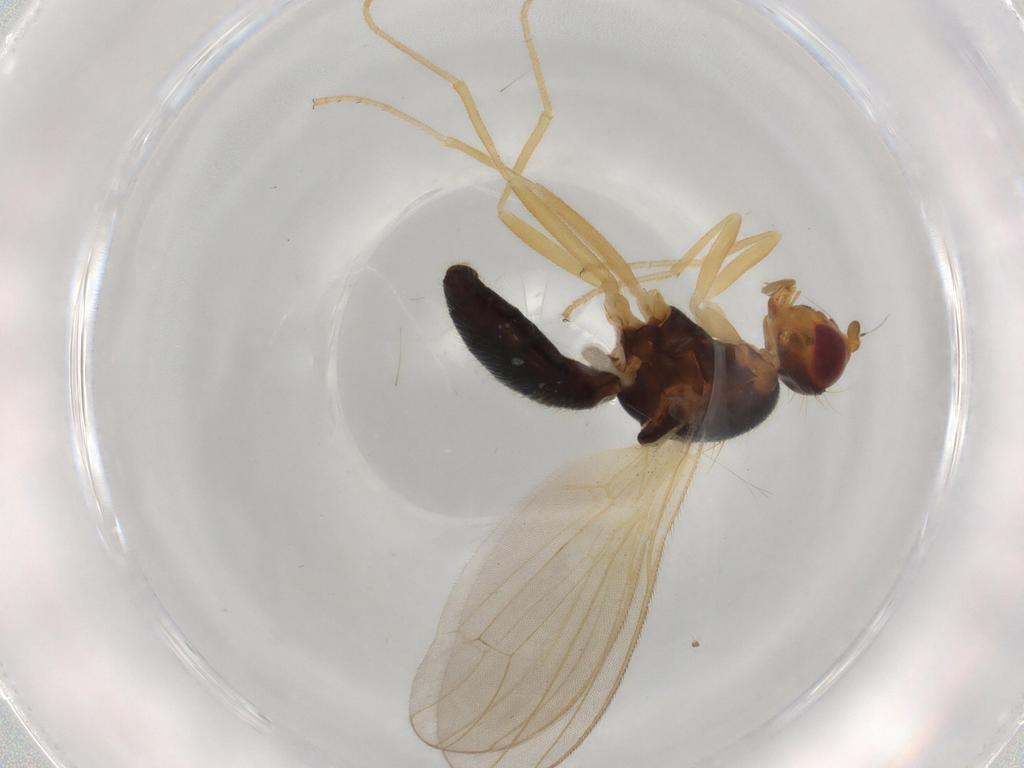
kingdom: Animalia
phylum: Arthropoda
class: Insecta
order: Diptera
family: Psilidae
